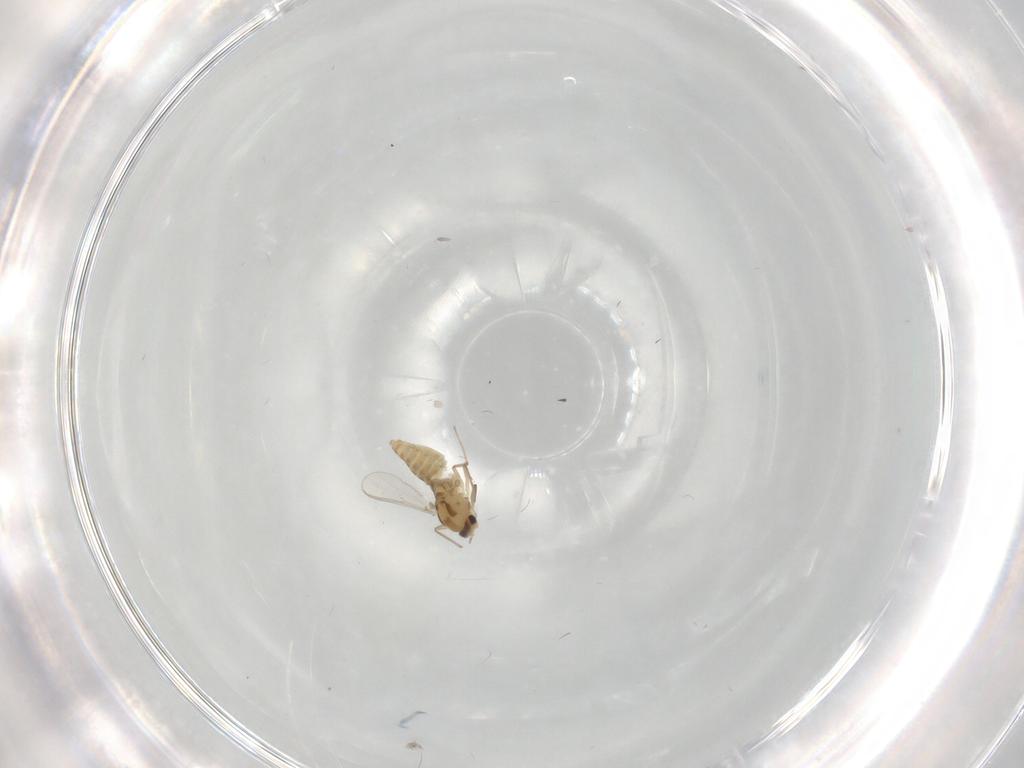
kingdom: Animalia
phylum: Arthropoda
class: Insecta
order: Diptera
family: Chironomidae
